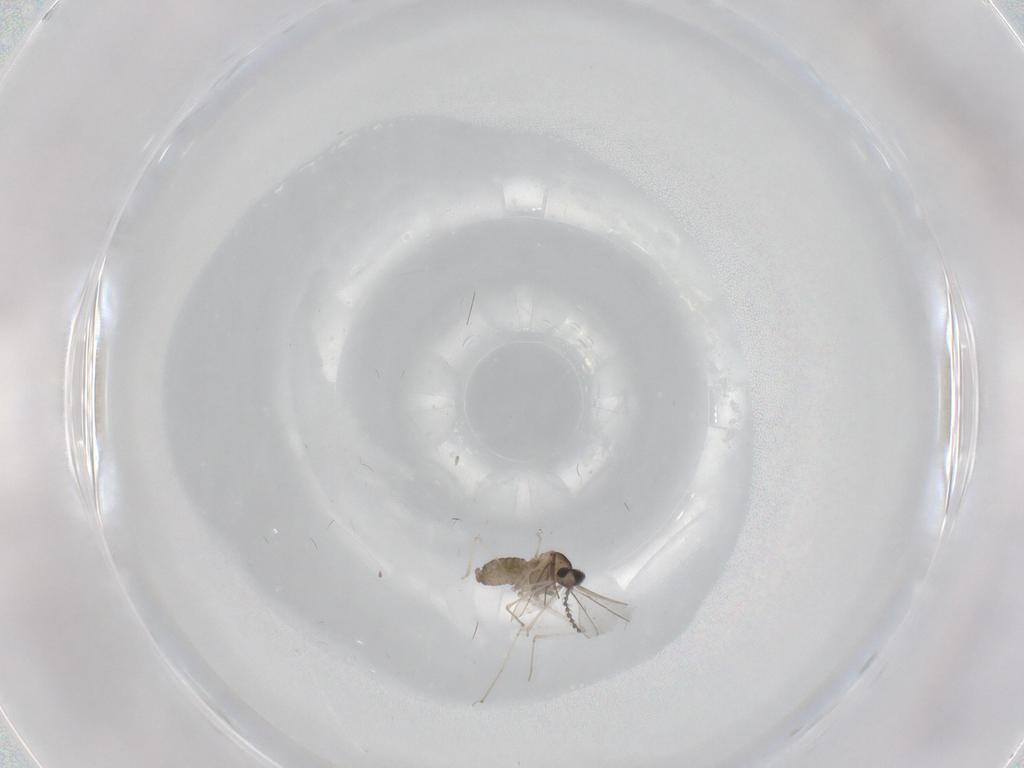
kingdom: Animalia
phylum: Arthropoda
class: Insecta
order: Diptera
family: Cecidomyiidae
